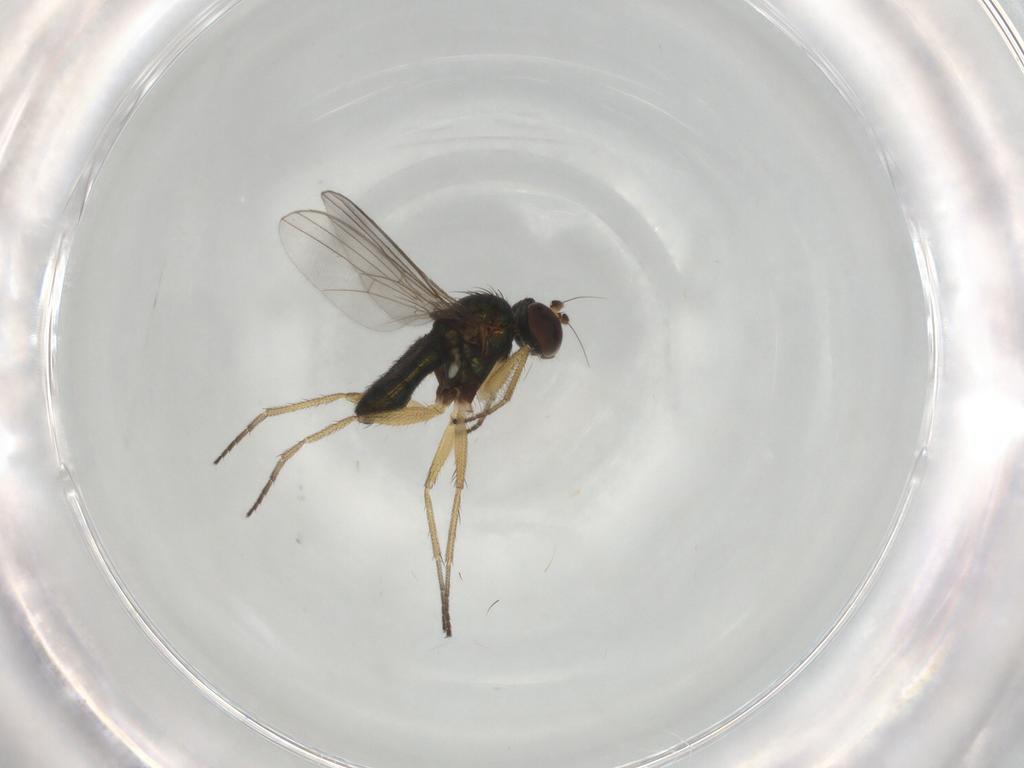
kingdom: Animalia
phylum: Arthropoda
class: Insecta
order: Diptera
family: Dolichopodidae
